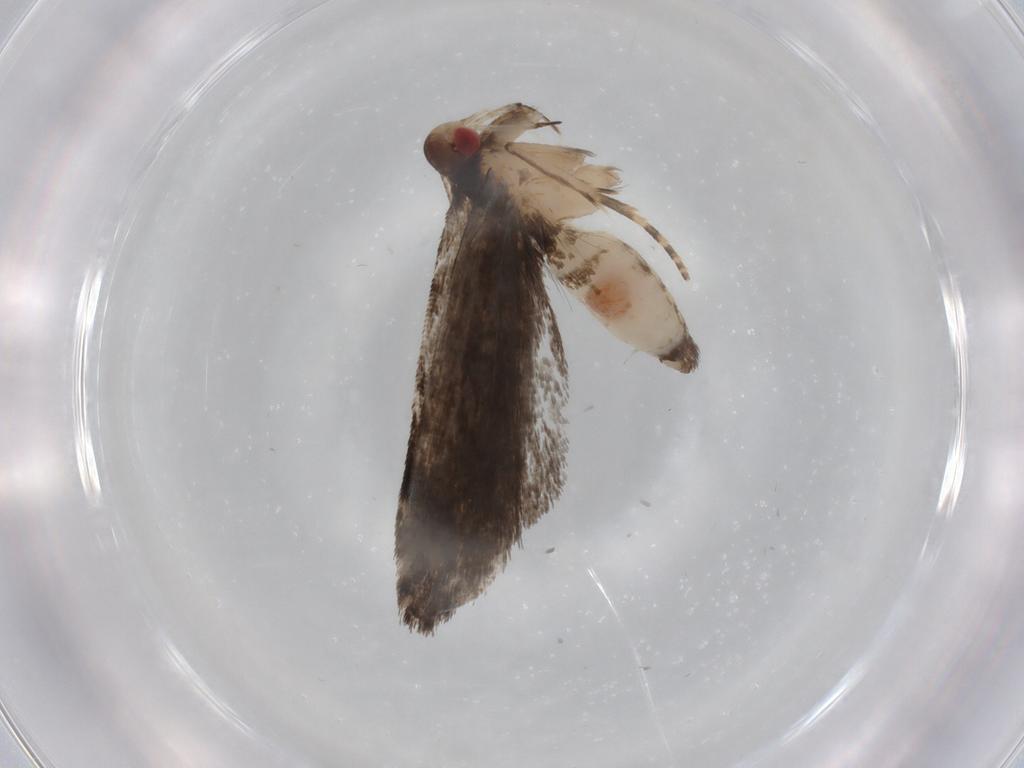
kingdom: Animalia
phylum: Arthropoda
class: Insecta
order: Lepidoptera
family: Gelechiidae
